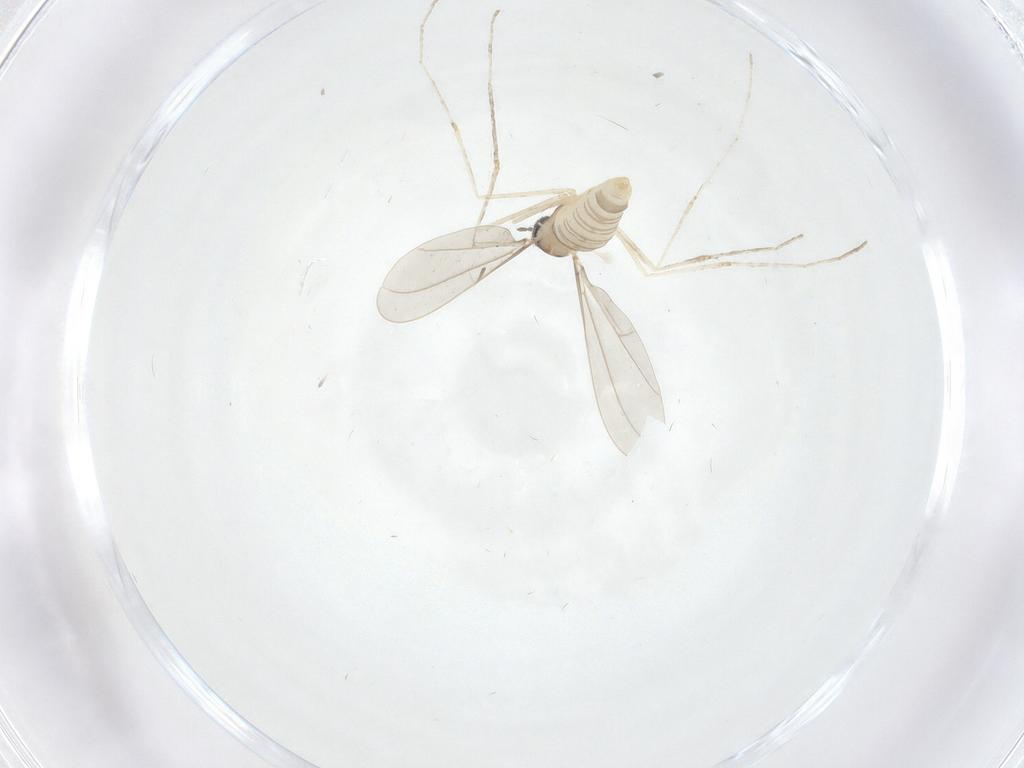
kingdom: Animalia
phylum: Arthropoda
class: Insecta
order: Diptera
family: Cecidomyiidae
